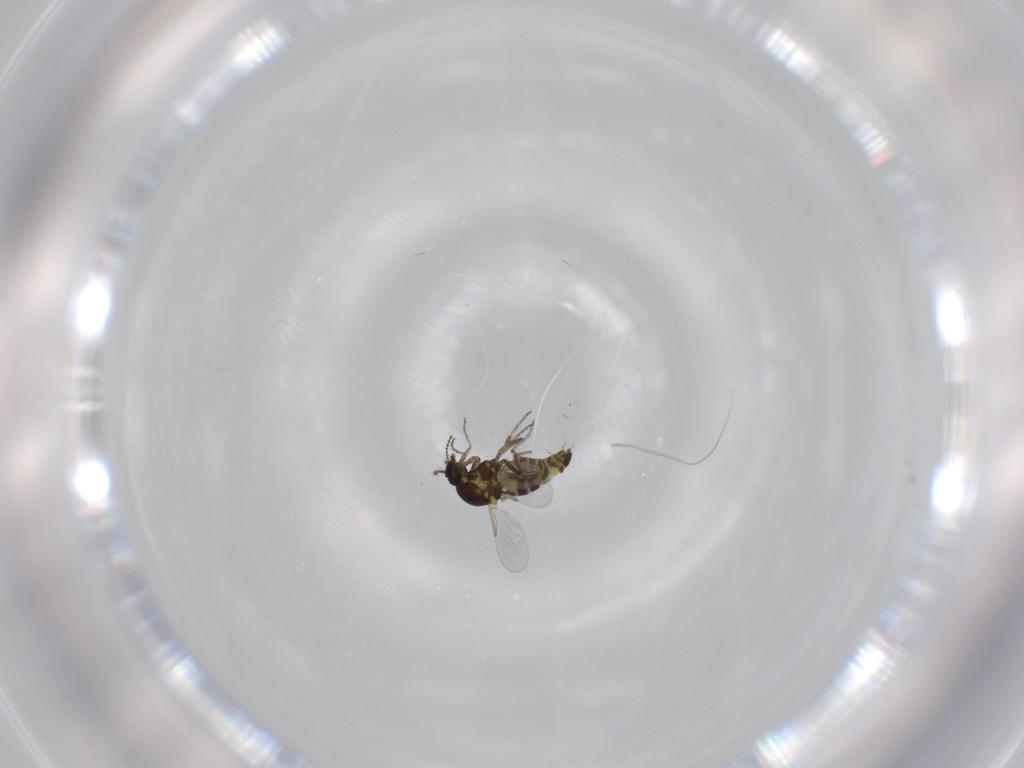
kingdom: Animalia
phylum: Arthropoda
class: Insecta
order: Diptera
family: Ceratopogonidae
